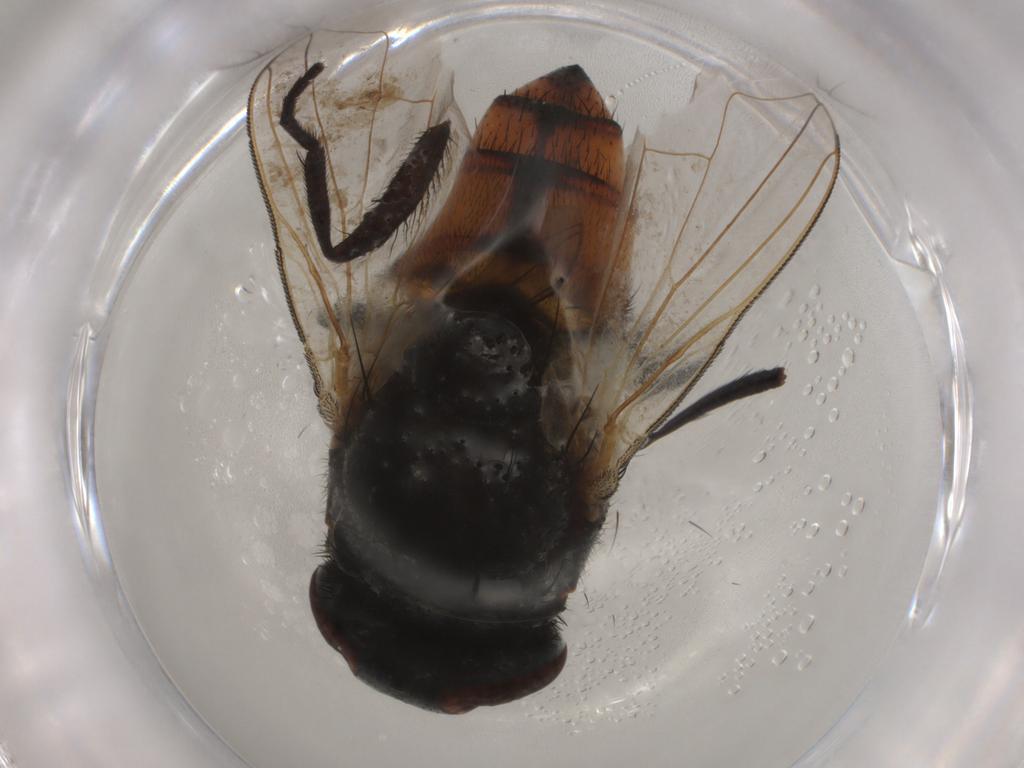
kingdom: Animalia
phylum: Arthropoda
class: Insecta
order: Diptera
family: Muscidae
